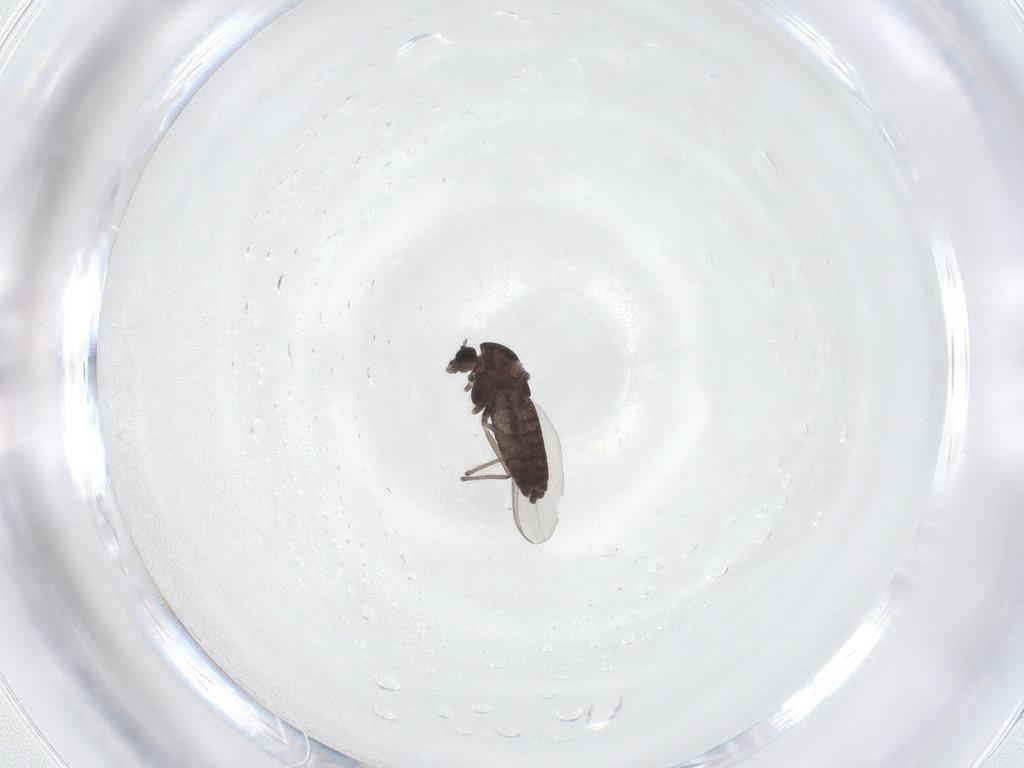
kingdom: Animalia
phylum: Arthropoda
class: Insecta
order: Diptera
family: Chironomidae
